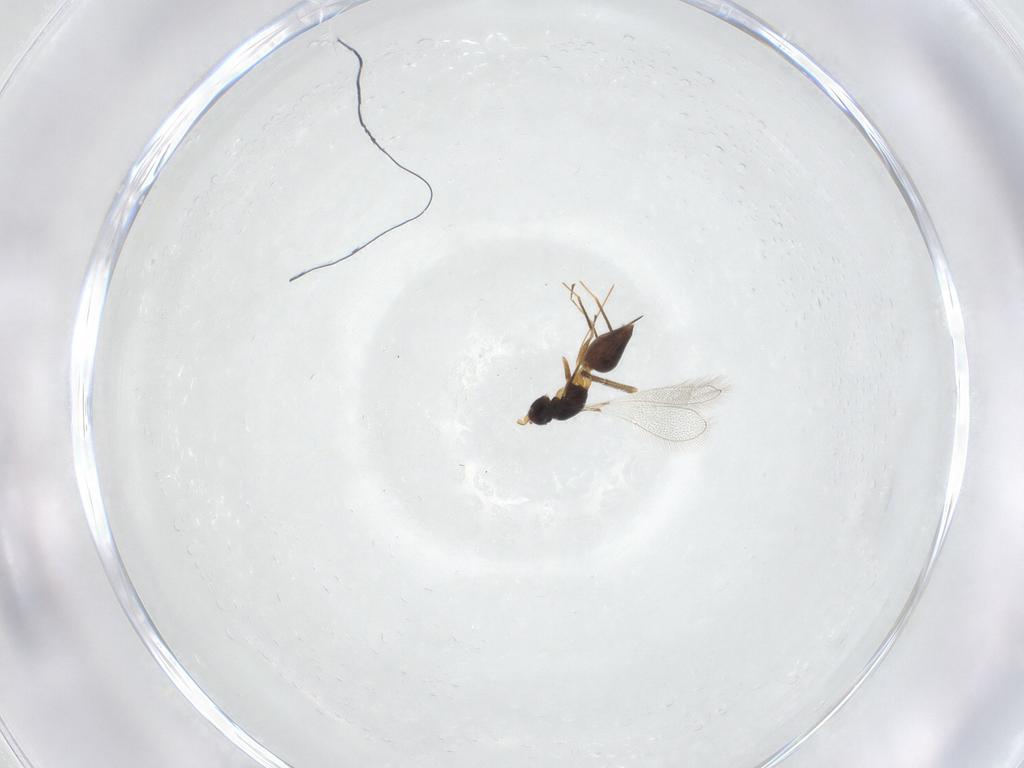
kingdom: Animalia
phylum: Arthropoda
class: Insecta
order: Hymenoptera
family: Mymaridae
